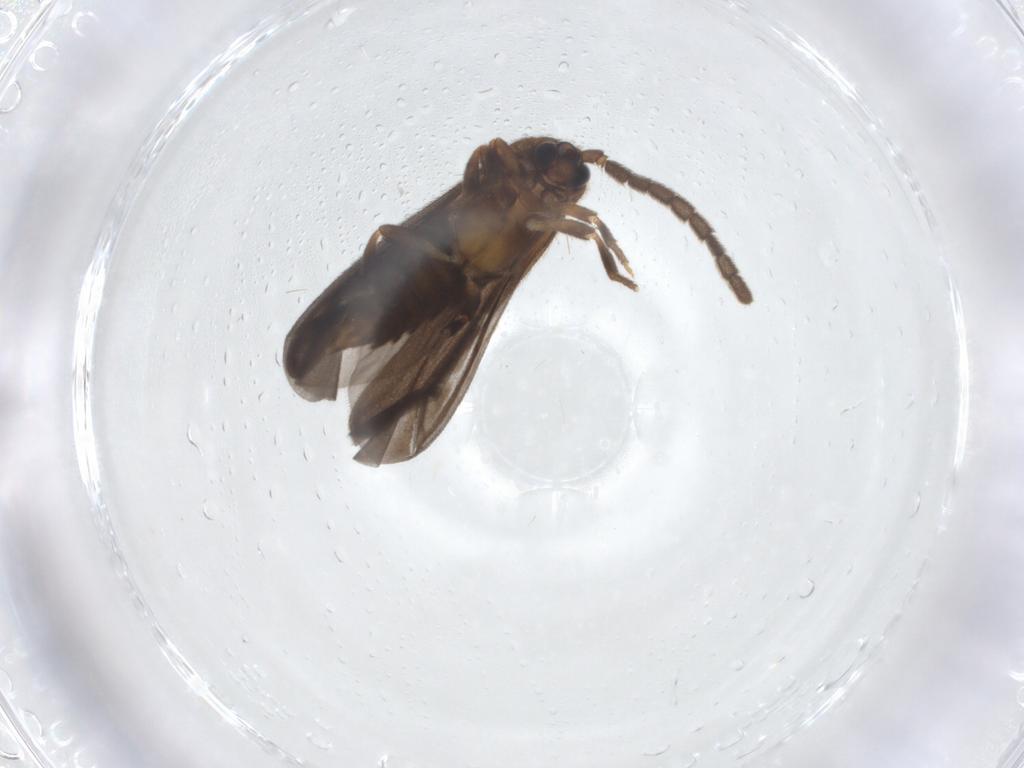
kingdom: Animalia
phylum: Arthropoda
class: Insecta
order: Coleoptera
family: Lycidae
